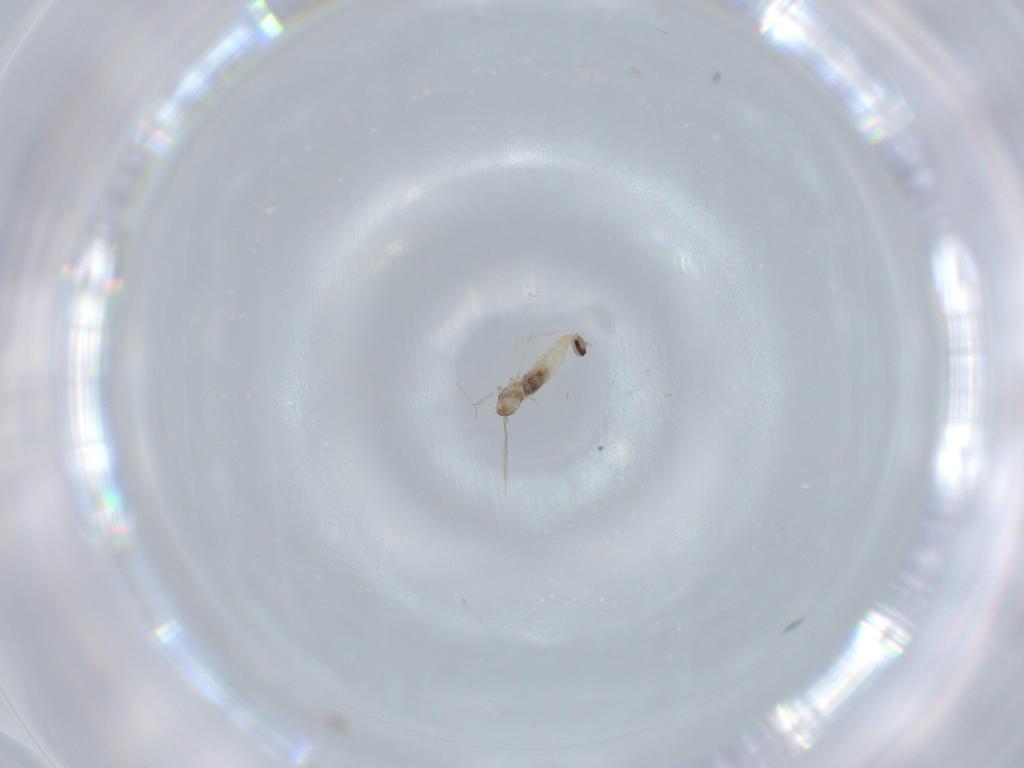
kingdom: Animalia
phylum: Arthropoda
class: Insecta
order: Diptera
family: Cecidomyiidae
